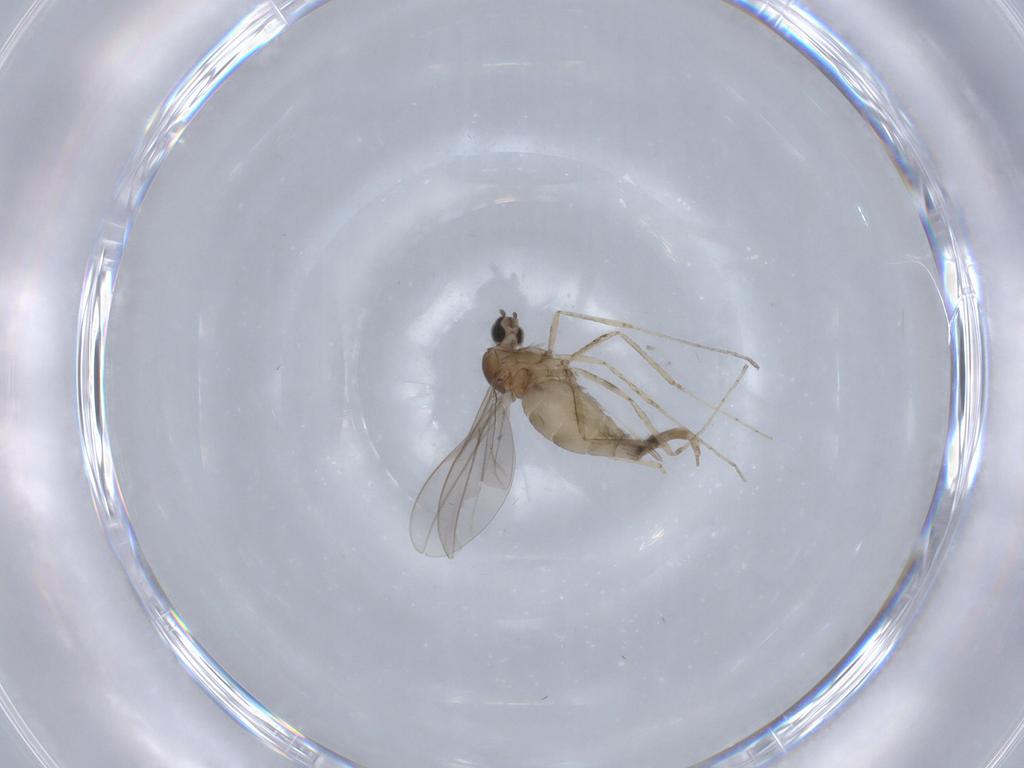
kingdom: Animalia
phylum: Arthropoda
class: Insecta
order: Diptera
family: Cecidomyiidae
